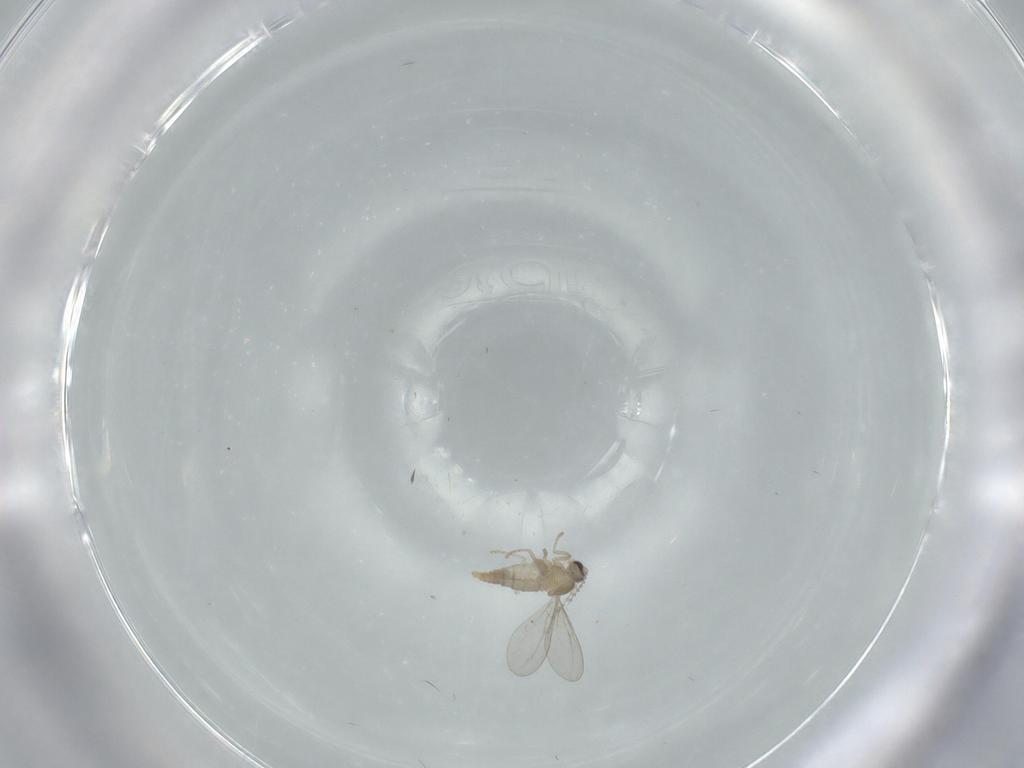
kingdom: Animalia
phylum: Arthropoda
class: Insecta
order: Diptera
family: Cecidomyiidae
